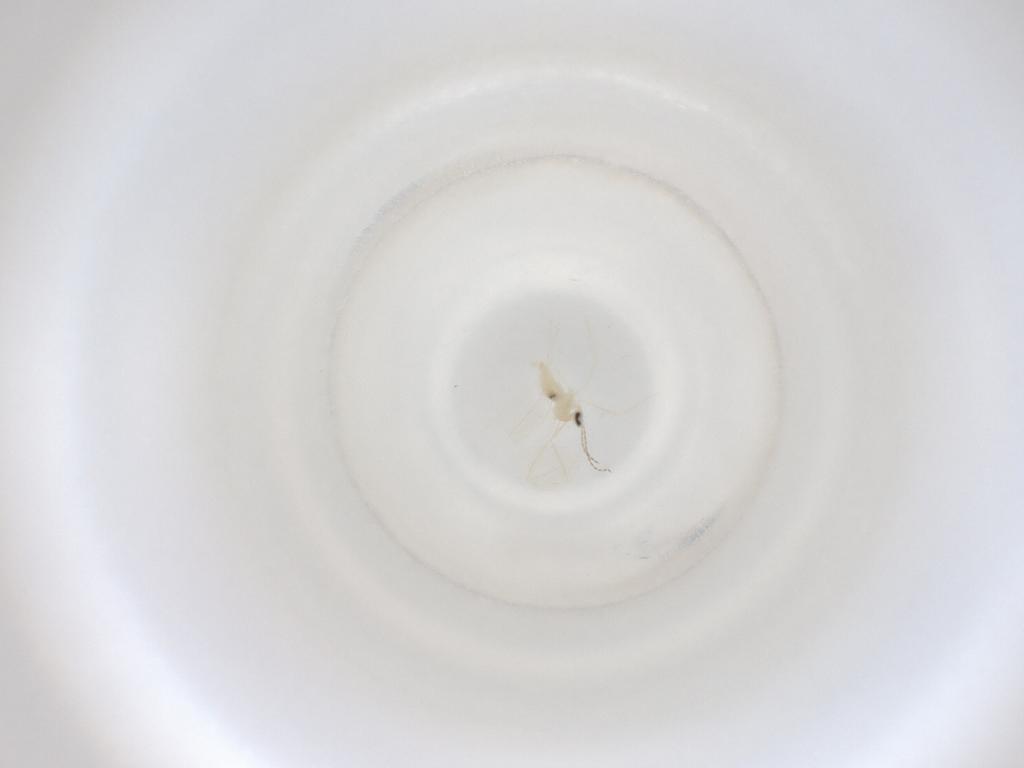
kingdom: Animalia
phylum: Arthropoda
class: Insecta
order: Diptera
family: Cecidomyiidae
